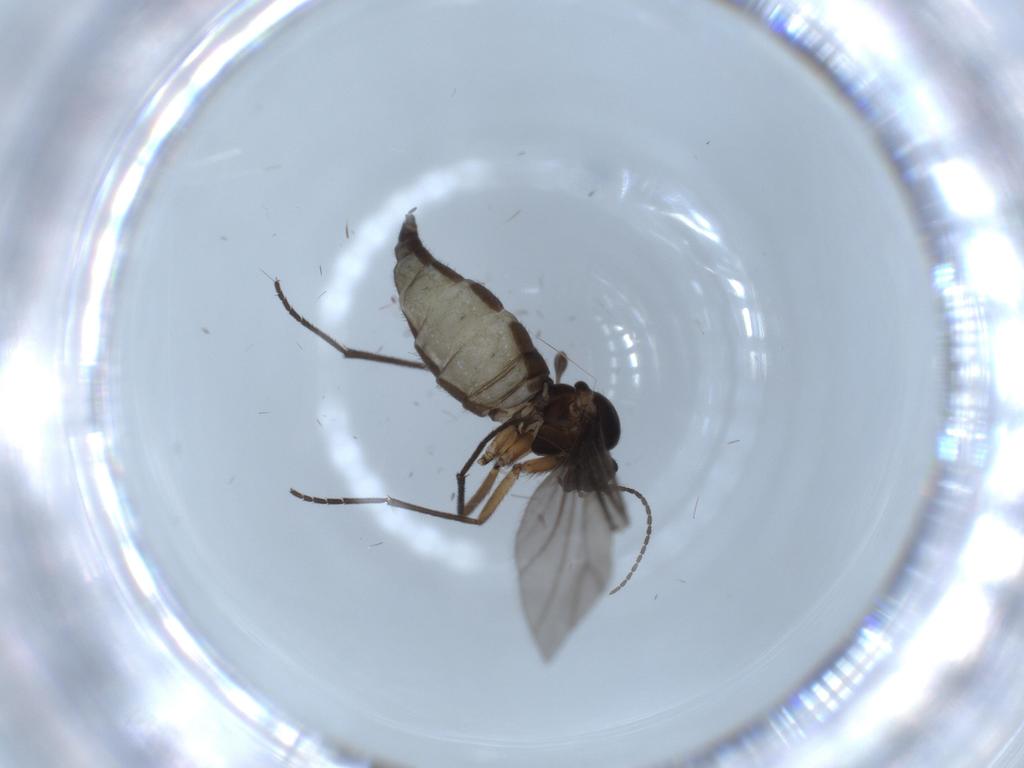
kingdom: Animalia
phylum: Arthropoda
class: Insecta
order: Diptera
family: Sciaridae
